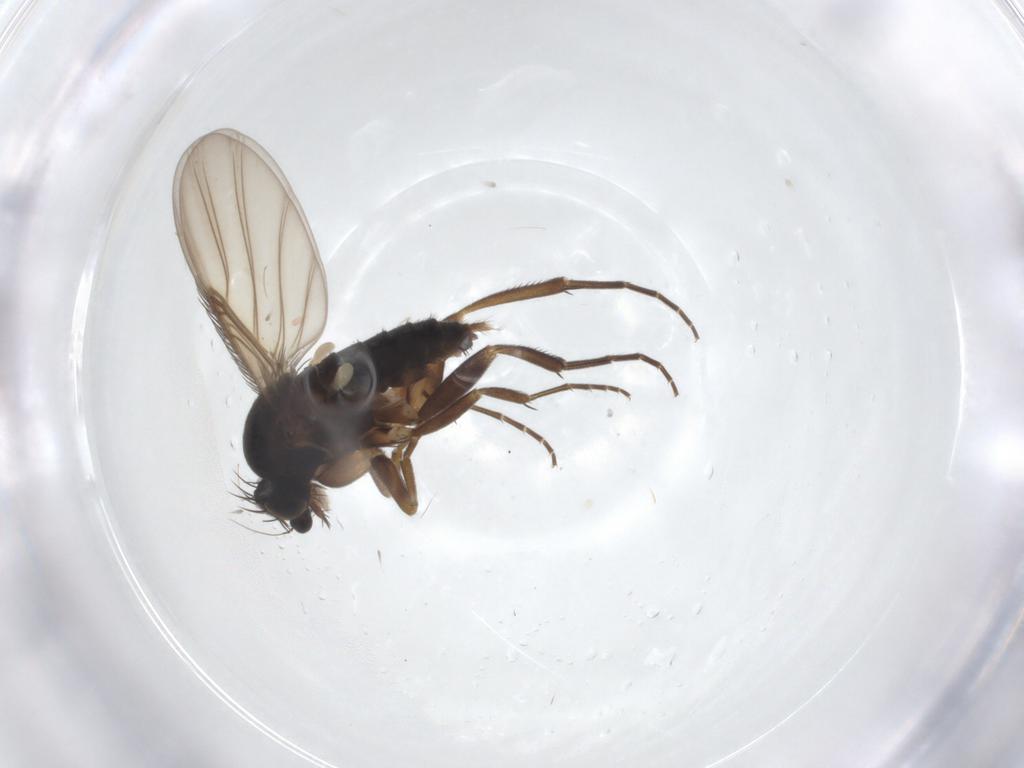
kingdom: Animalia
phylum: Arthropoda
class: Insecta
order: Diptera
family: Phoridae
